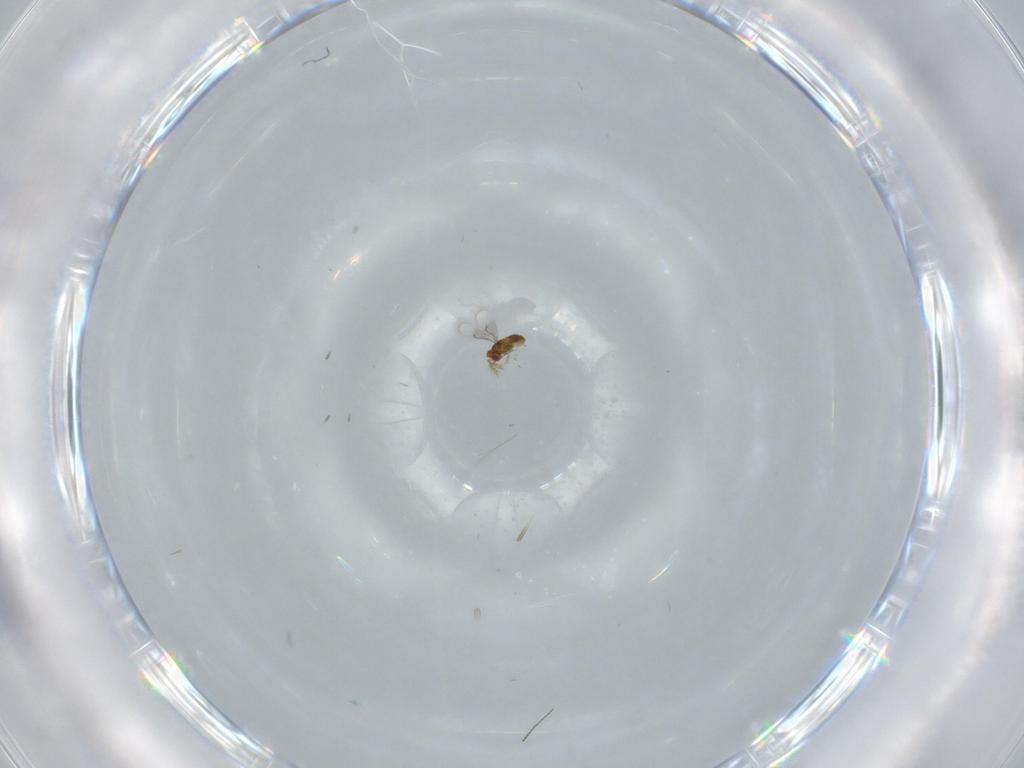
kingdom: Animalia
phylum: Arthropoda
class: Insecta
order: Hymenoptera
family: Trichogrammatidae
